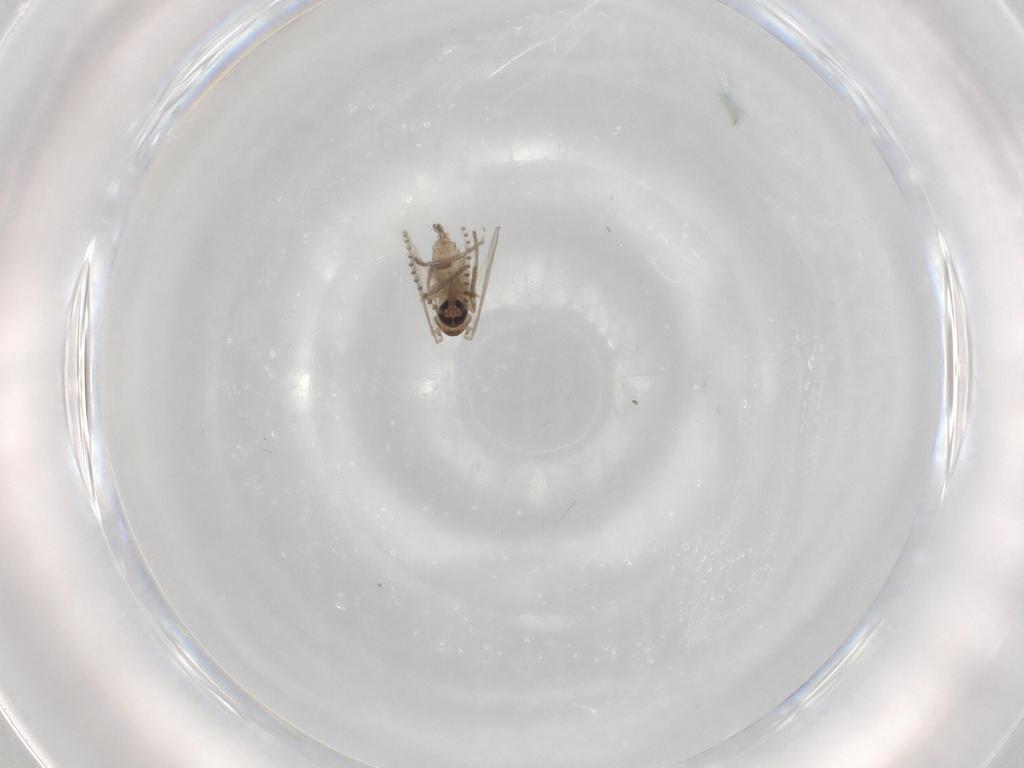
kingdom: Animalia
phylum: Arthropoda
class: Insecta
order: Diptera
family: Psychodidae
